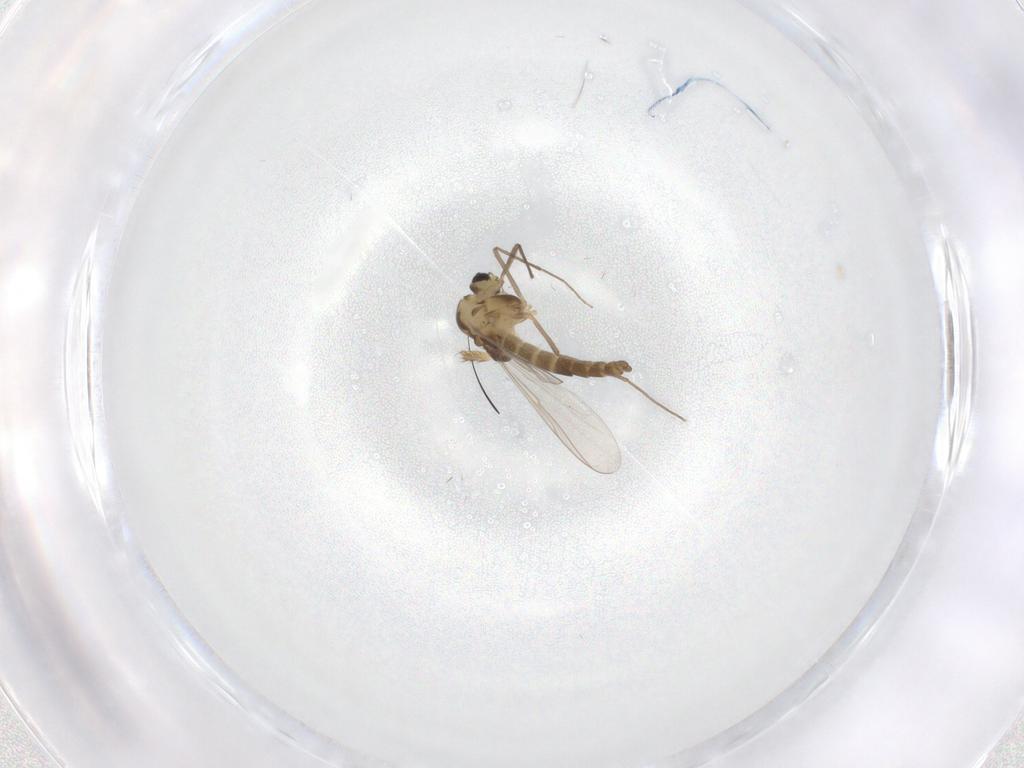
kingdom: Animalia
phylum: Arthropoda
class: Insecta
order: Diptera
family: Chironomidae
